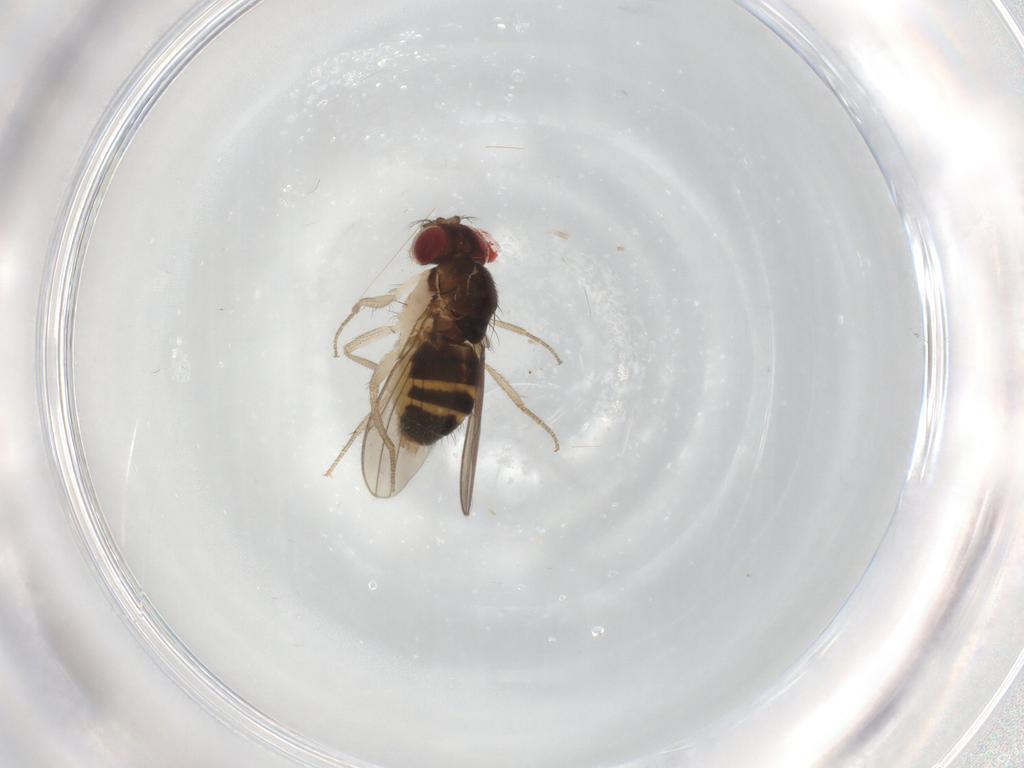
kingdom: Animalia
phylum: Arthropoda
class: Insecta
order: Diptera
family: Drosophilidae
